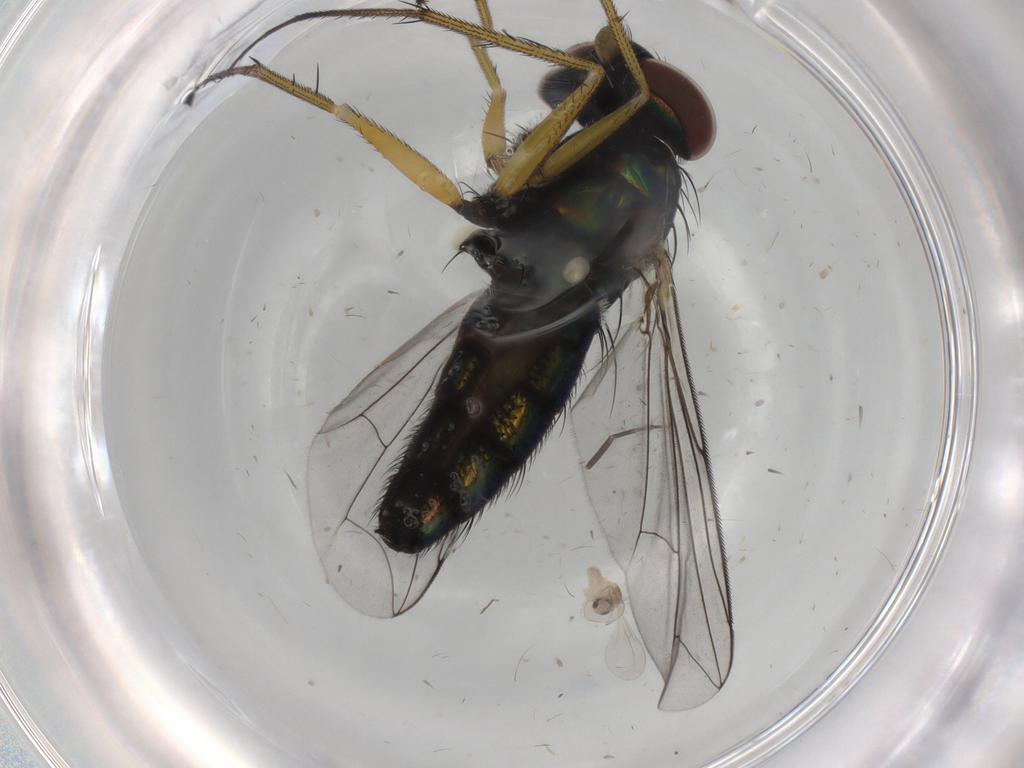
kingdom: Animalia
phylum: Arthropoda
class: Insecta
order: Diptera
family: Dolichopodidae
